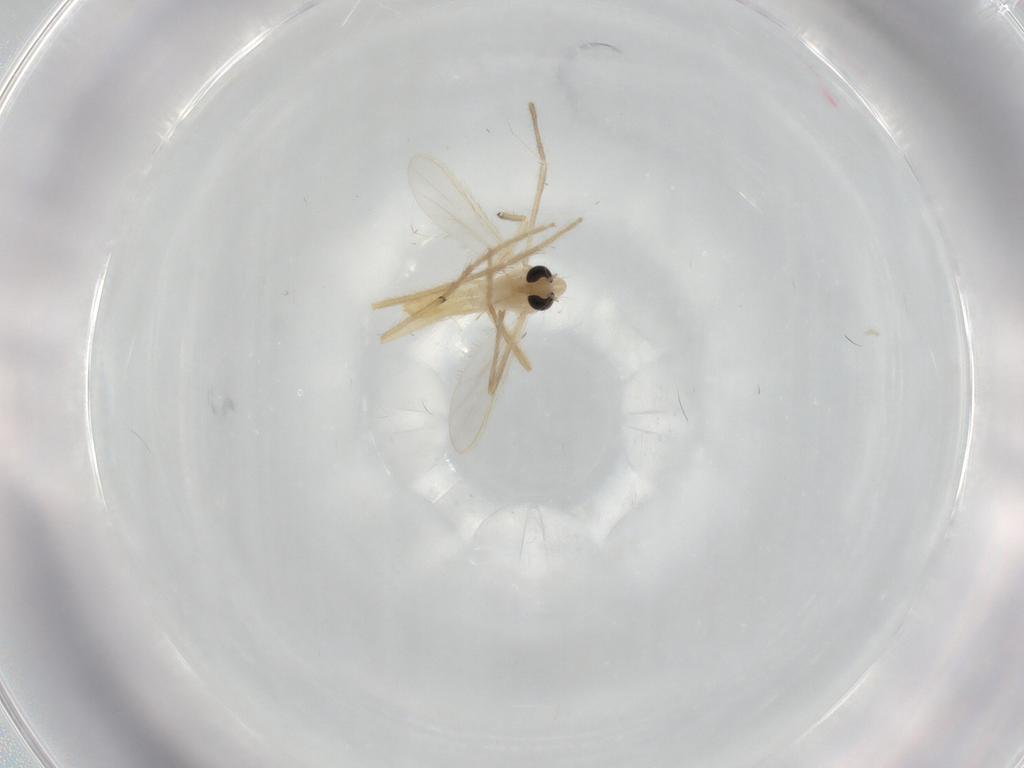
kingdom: Animalia
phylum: Arthropoda
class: Insecta
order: Diptera
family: Chironomidae
